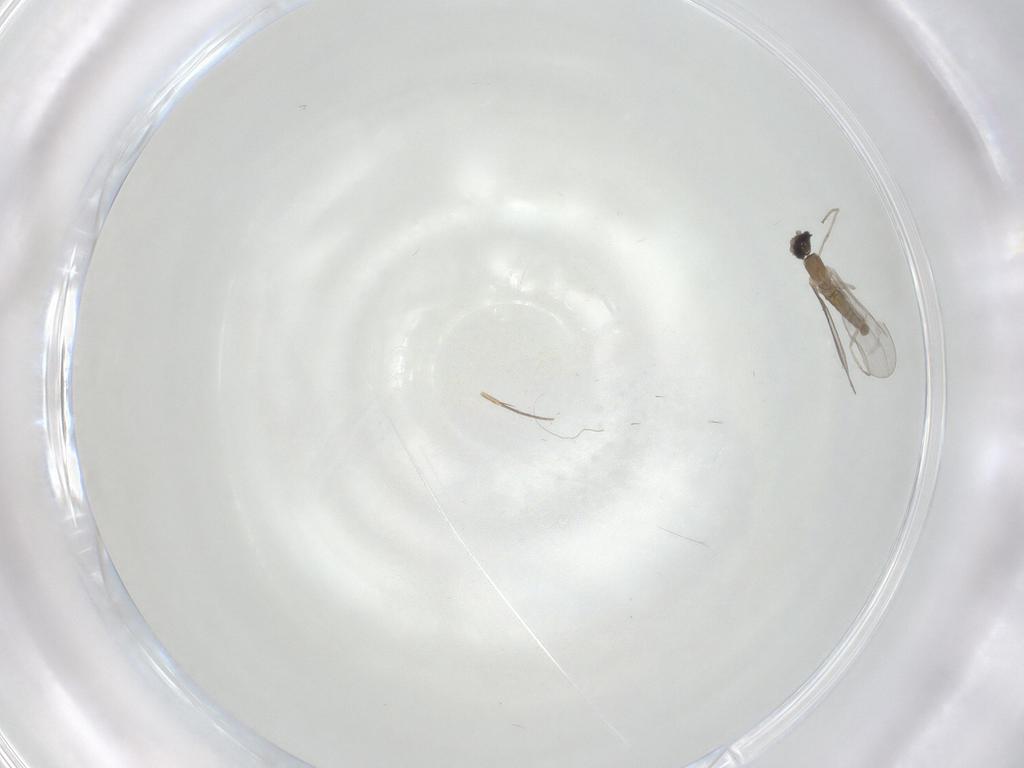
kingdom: Animalia
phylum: Arthropoda
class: Insecta
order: Diptera
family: Cecidomyiidae
